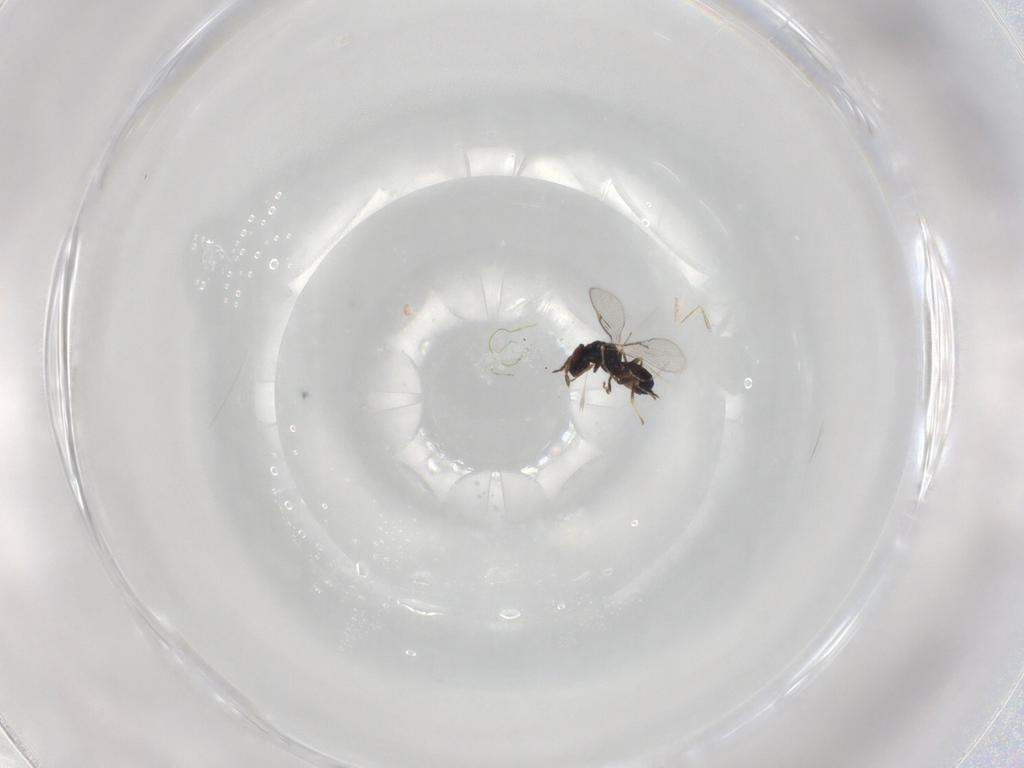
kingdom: Animalia
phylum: Arthropoda
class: Insecta
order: Hymenoptera
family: Eulophidae
